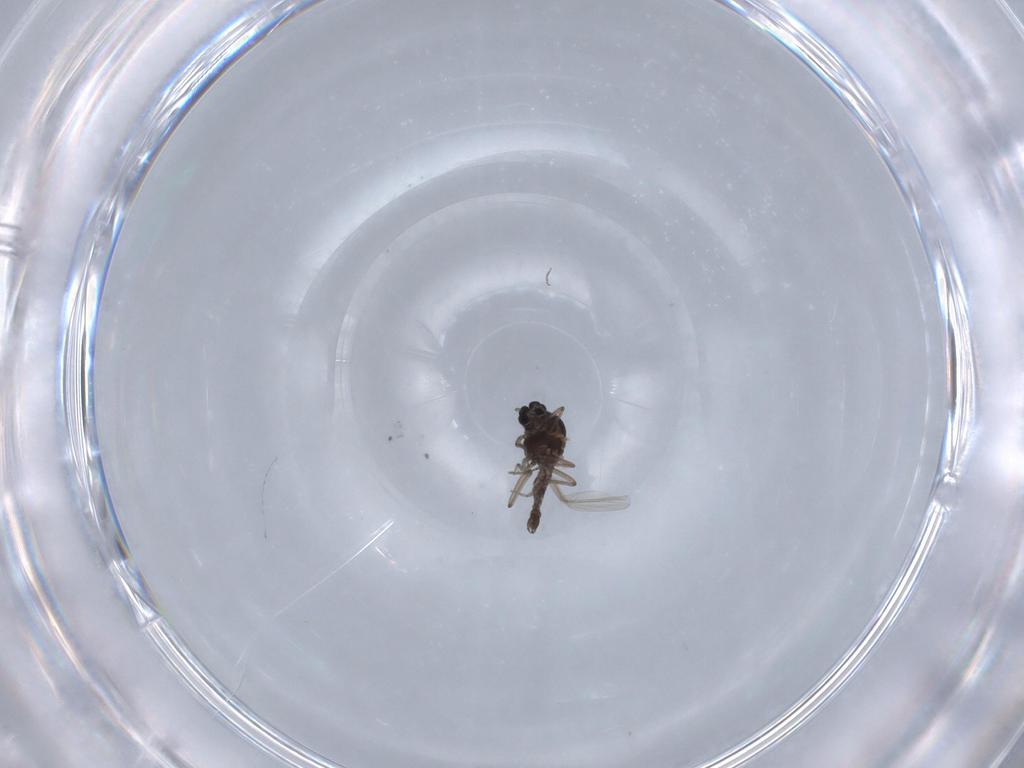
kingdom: Animalia
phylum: Arthropoda
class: Insecta
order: Diptera
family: Ceratopogonidae
